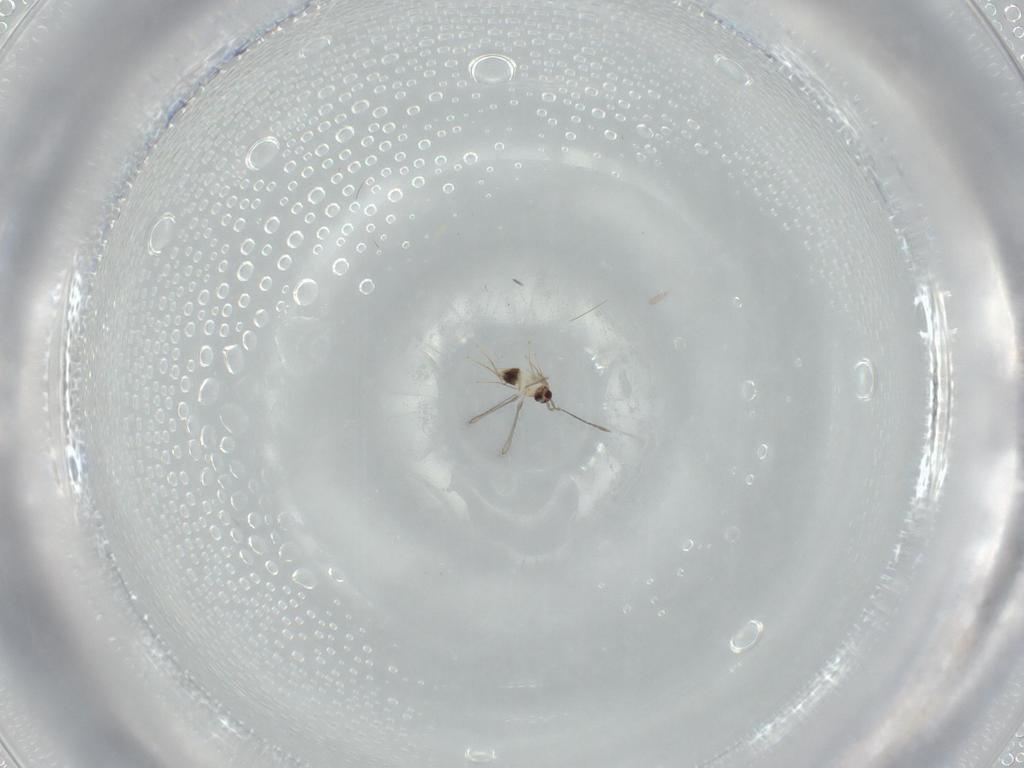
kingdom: Animalia
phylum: Arthropoda
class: Insecta
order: Hymenoptera
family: Mymaridae
